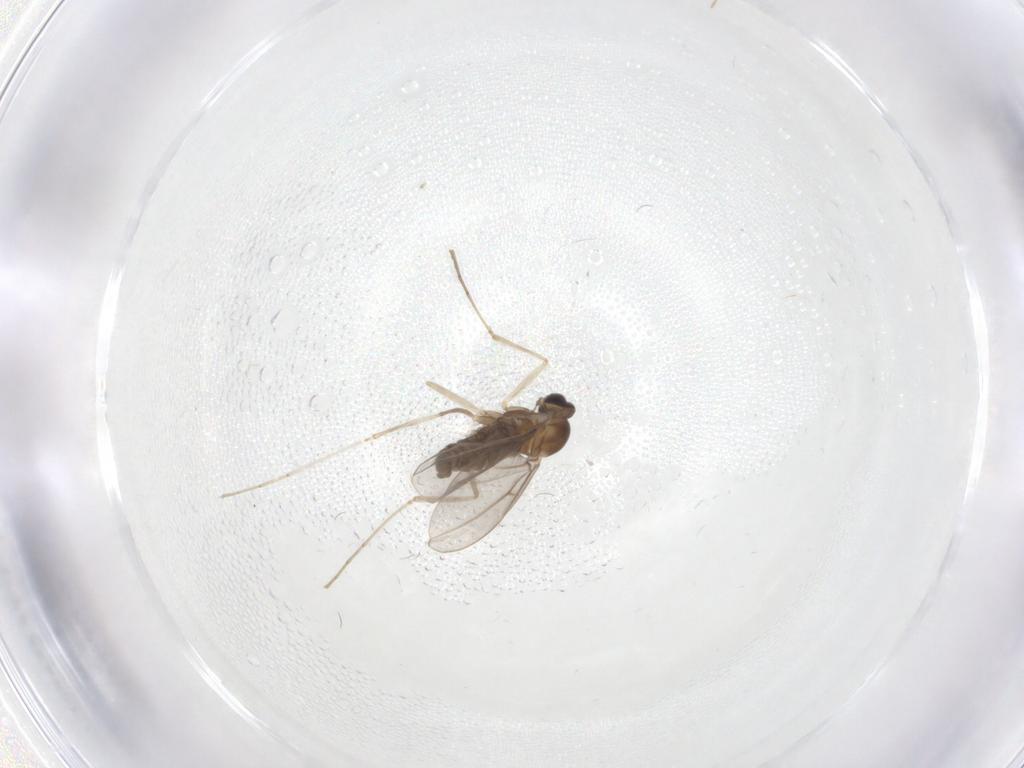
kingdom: Animalia
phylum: Arthropoda
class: Insecta
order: Diptera
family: Cecidomyiidae
